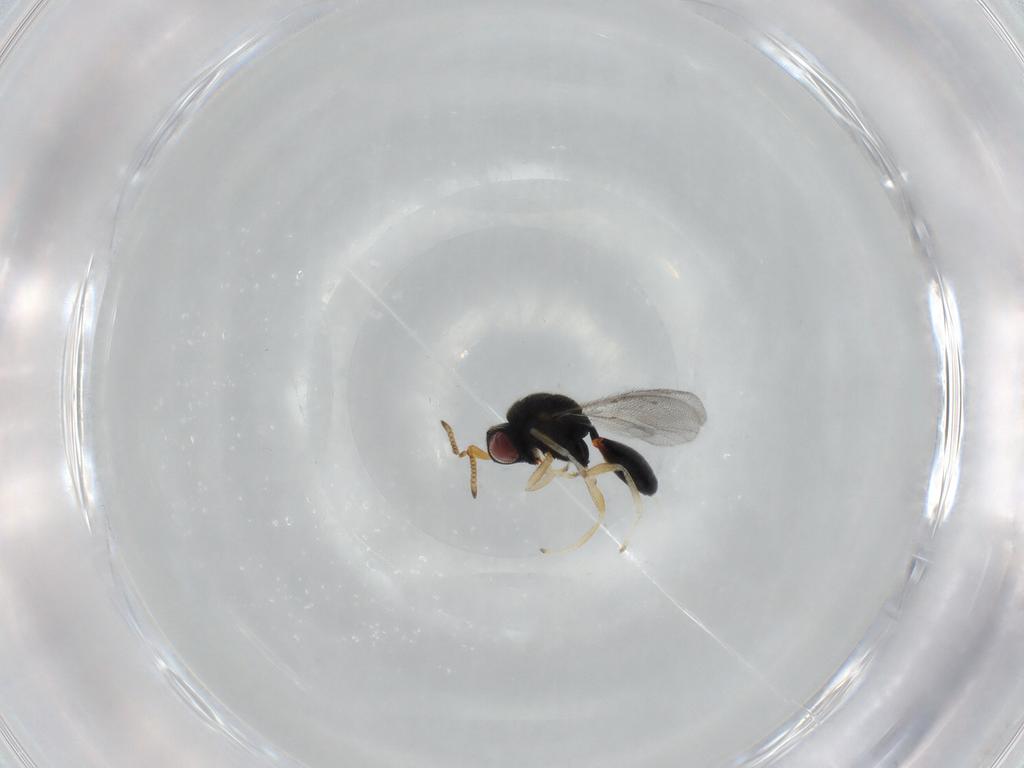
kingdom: Animalia
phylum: Arthropoda
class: Insecta
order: Hymenoptera
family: Eurytomidae
